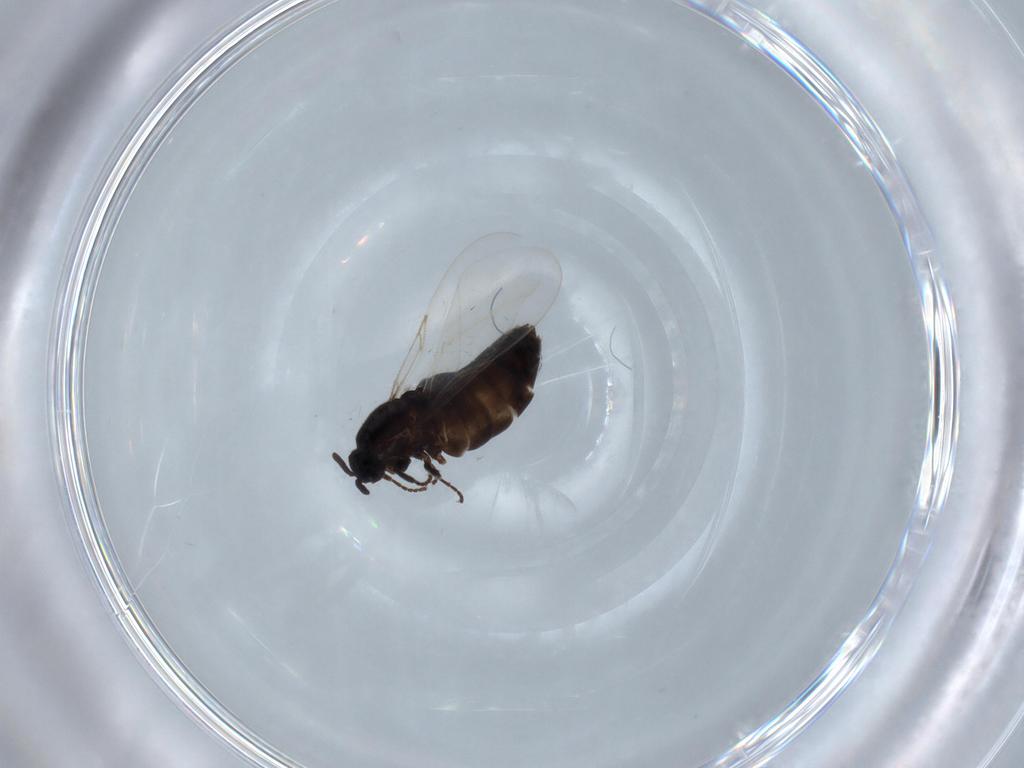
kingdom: Animalia
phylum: Arthropoda
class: Insecta
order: Diptera
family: Scatopsidae
